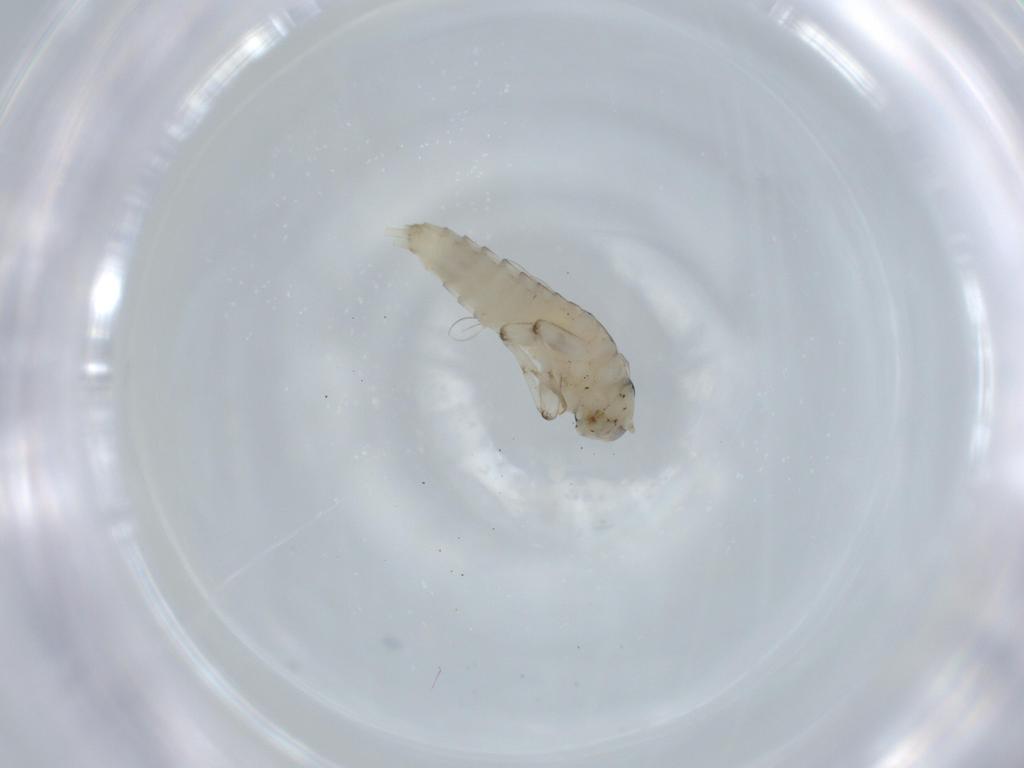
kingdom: Animalia
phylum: Arthropoda
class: Insecta
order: Ephemeroptera
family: Baetidae
